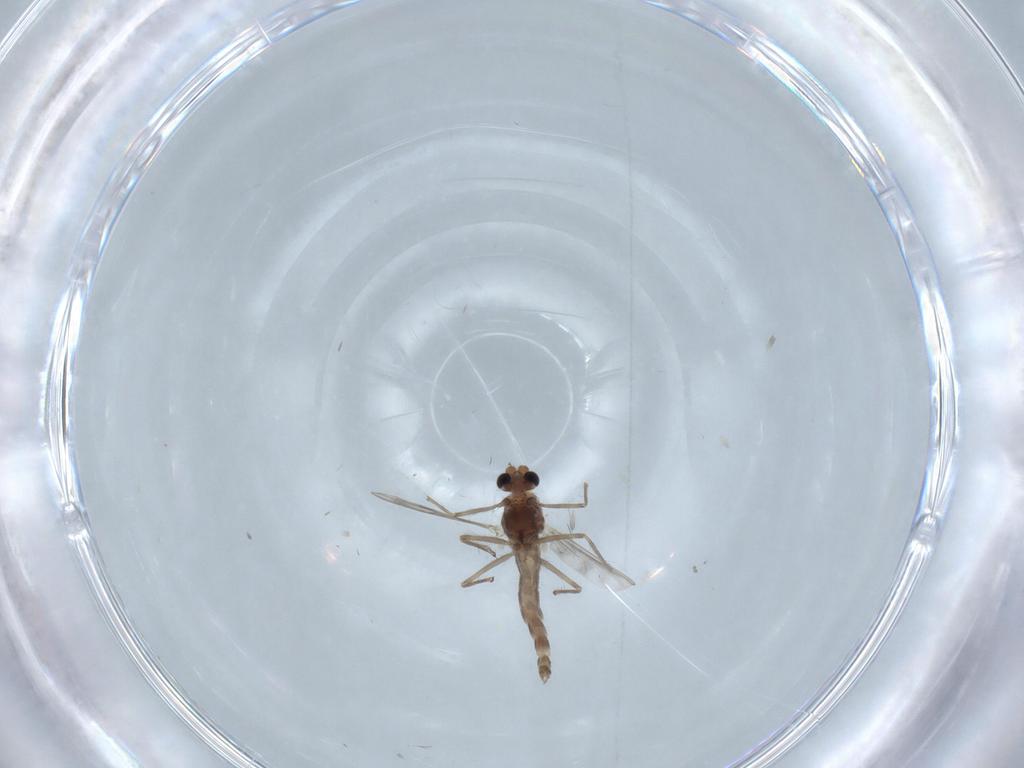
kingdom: Animalia
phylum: Arthropoda
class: Insecta
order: Diptera
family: Chironomidae
